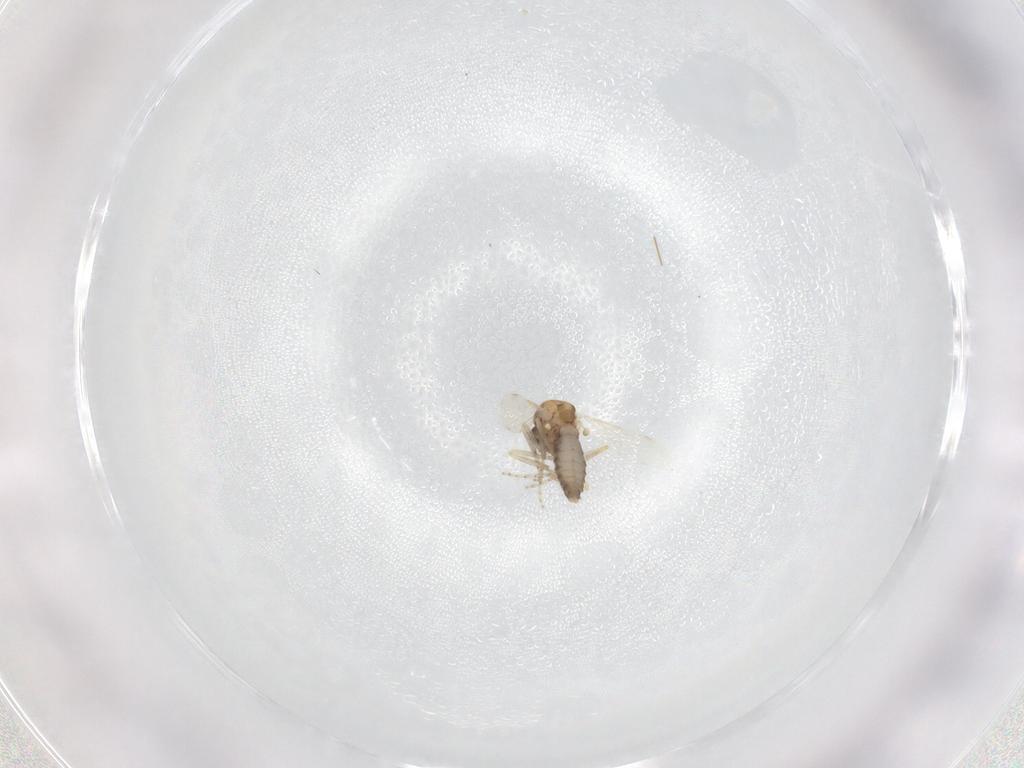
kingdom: Animalia
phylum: Arthropoda
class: Insecta
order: Diptera
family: Ceratopogonidae
